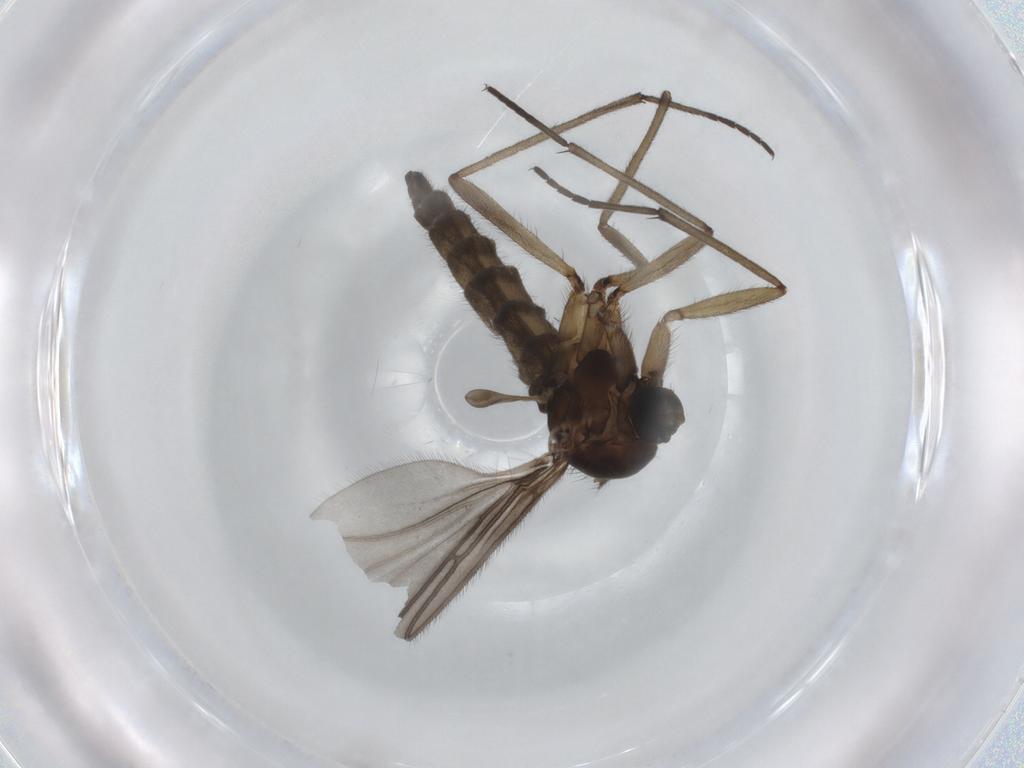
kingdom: Animalia
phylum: Arthropoda
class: Insecta
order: Diptera
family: Sciaridae
